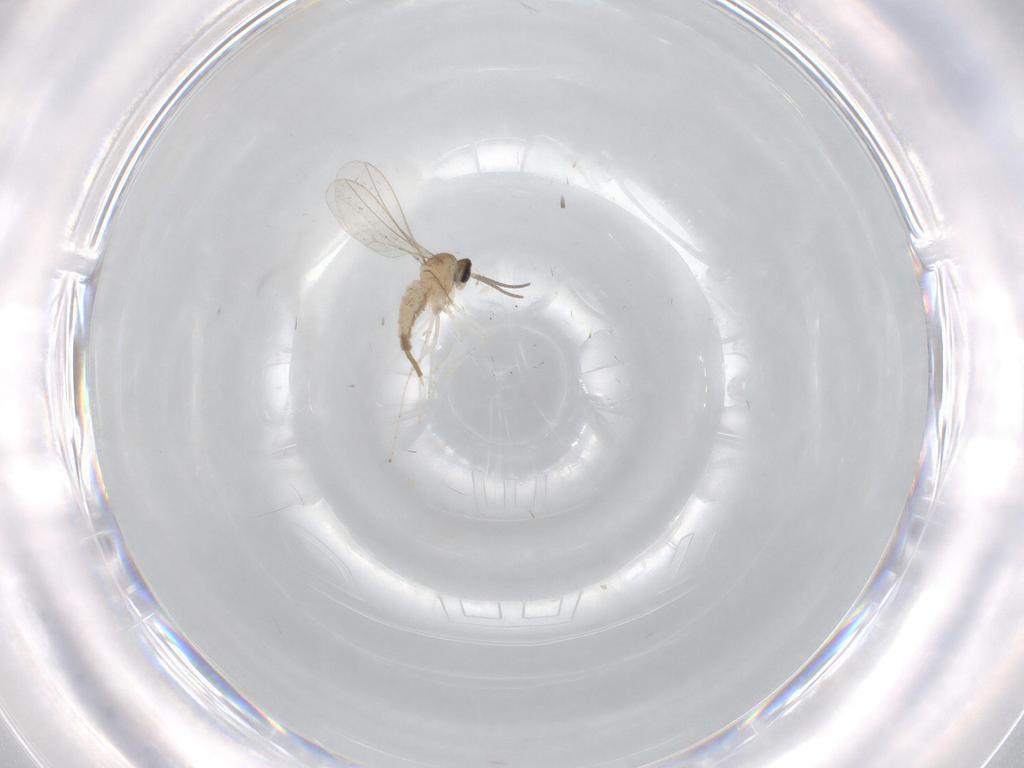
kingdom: Animalia
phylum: Arthropoda
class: Insecta
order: Diptera
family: Cecidomyiidae
